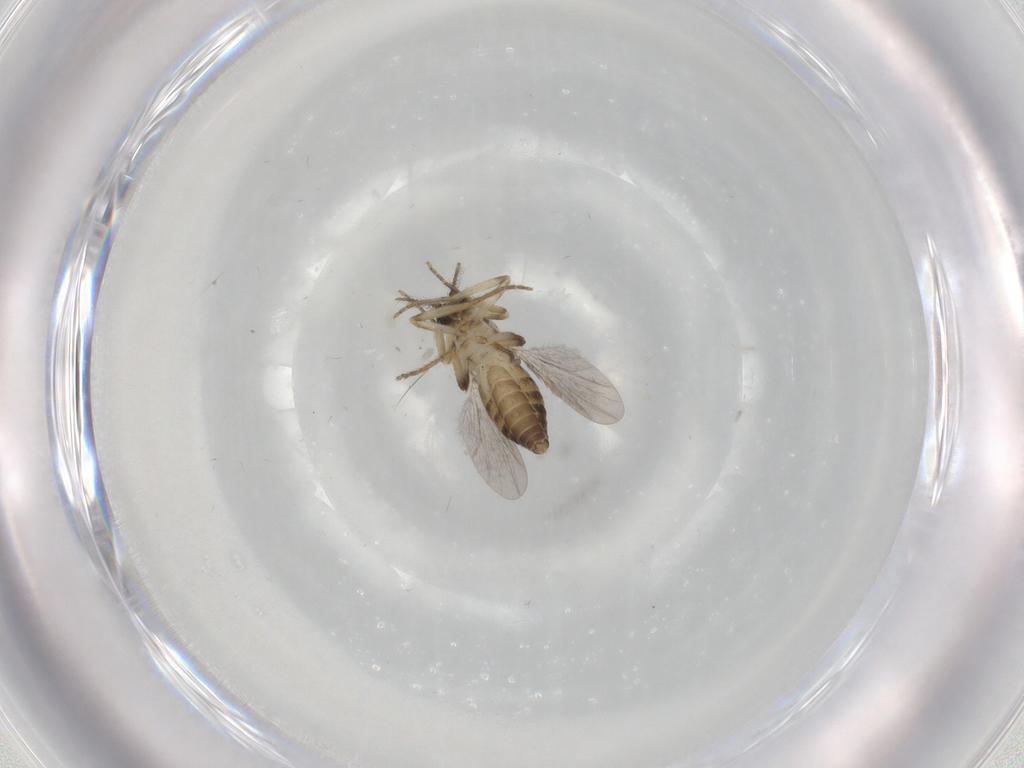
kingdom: Animalia
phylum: Arthropoda
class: Insecta
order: Diptera
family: Ceratopogonidae
